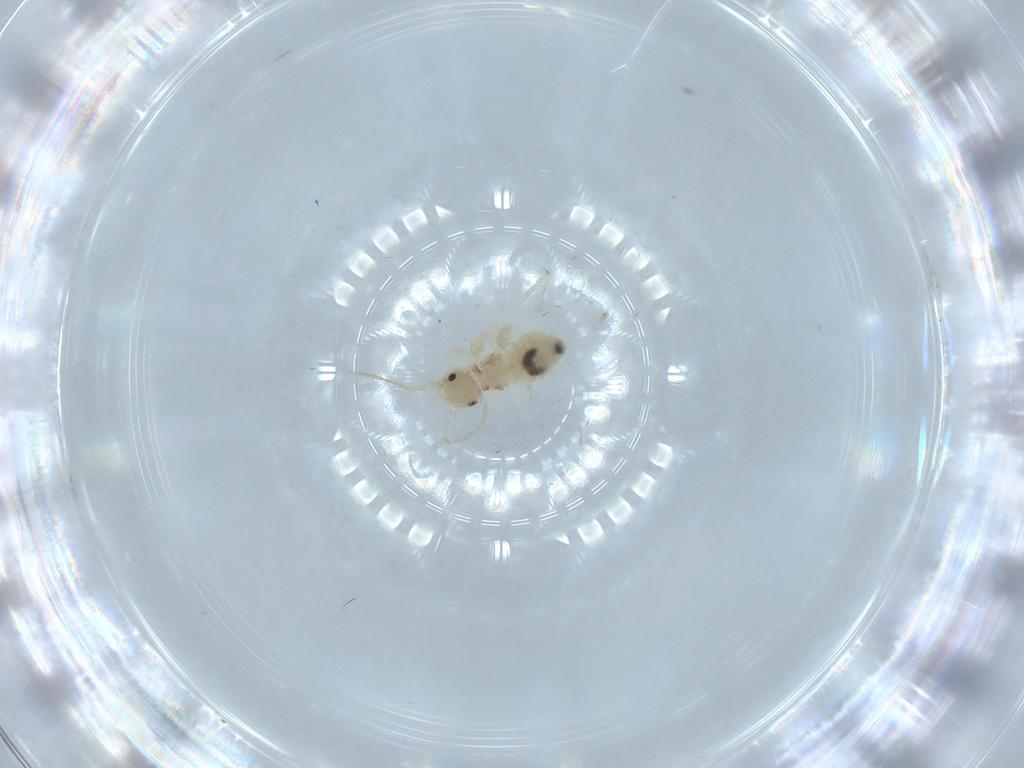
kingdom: Animalia
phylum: Arthropoda
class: Insecta
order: Psocodea
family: Amphipsocidae
